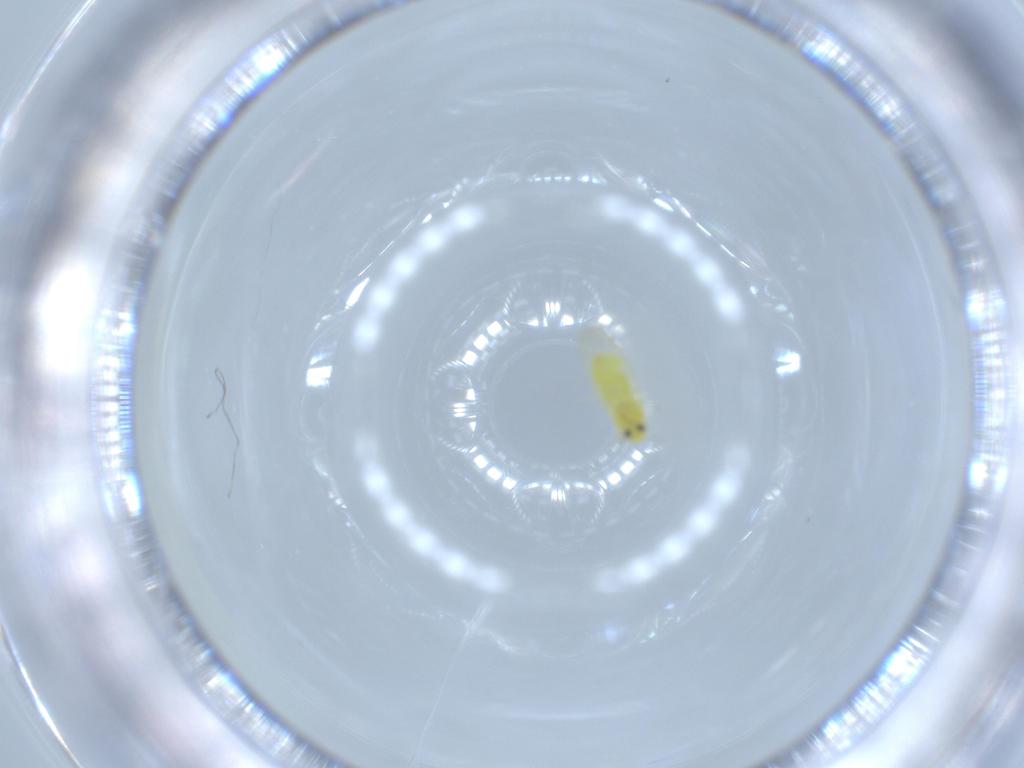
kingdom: Animalia
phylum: Arthropoda
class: Insecta
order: Hemiptera
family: Aleyrodidae
